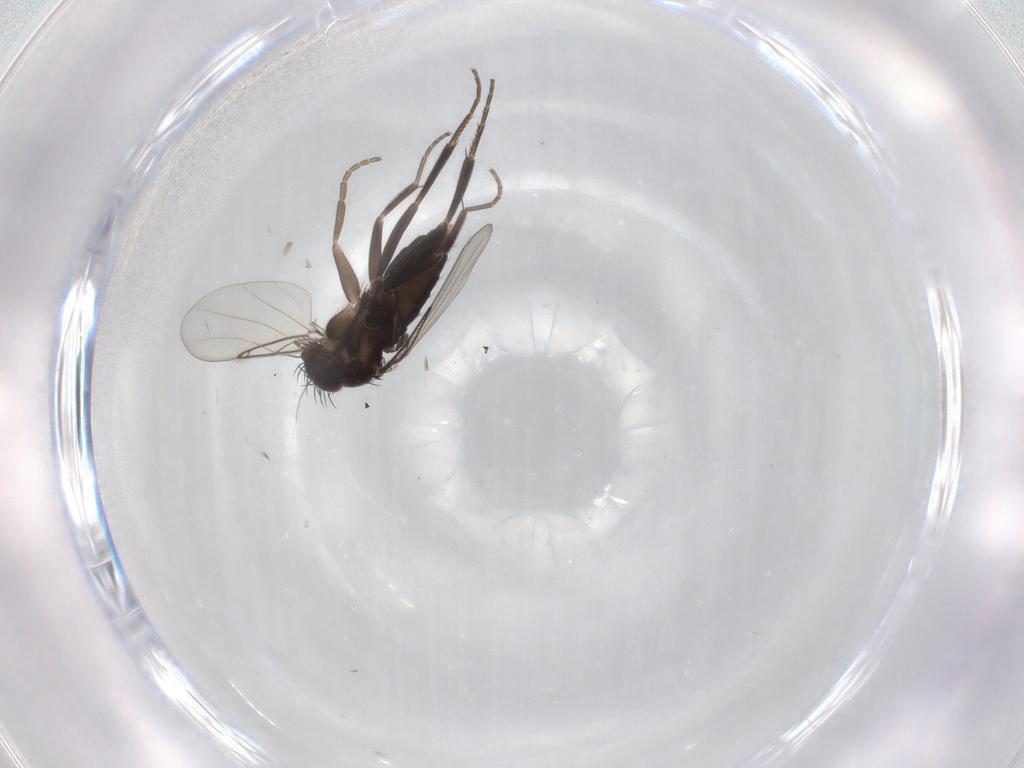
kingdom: Animalia
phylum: Arthropoda
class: Insecta
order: Diptera
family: Phoridae
